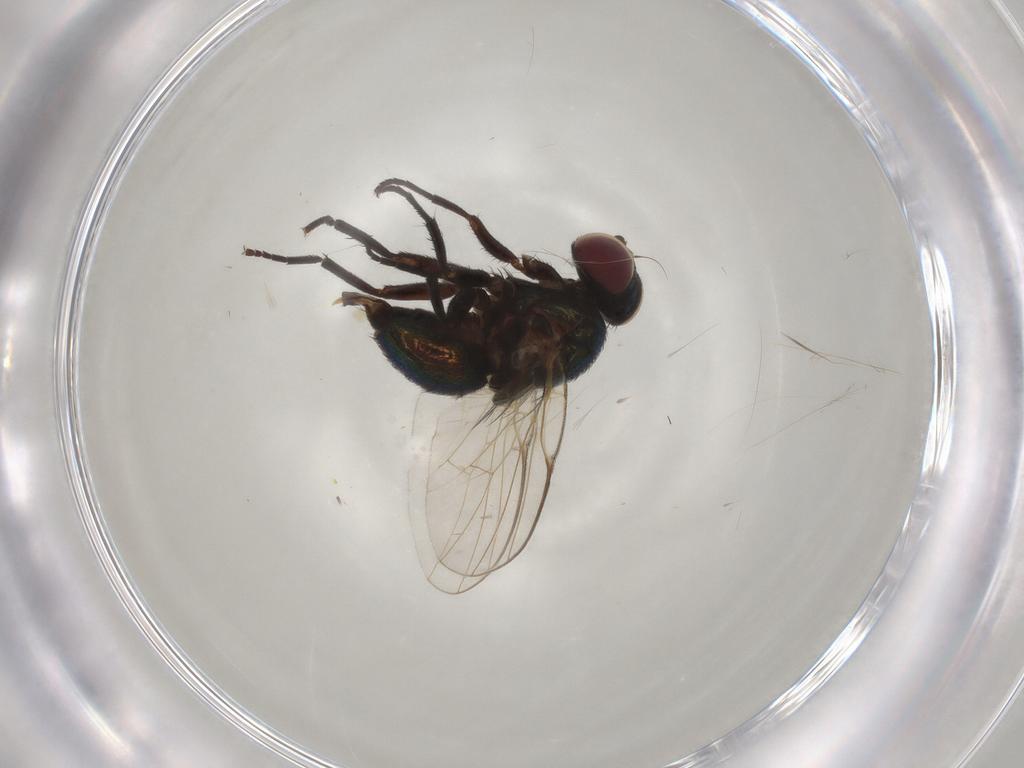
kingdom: Animalia
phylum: Arthropoda
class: Insecta
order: Diptera
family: Agromyzidae
